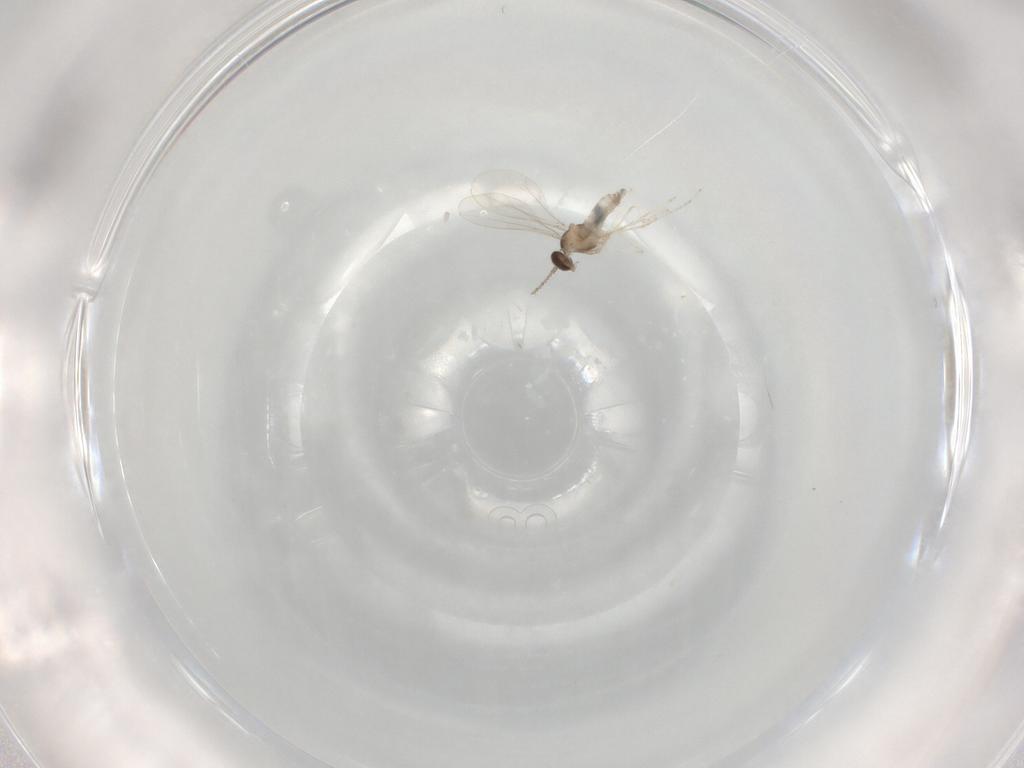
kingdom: Animalia
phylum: Arthropoda
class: Insecta
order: Diptera
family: Cecidomyiidae
